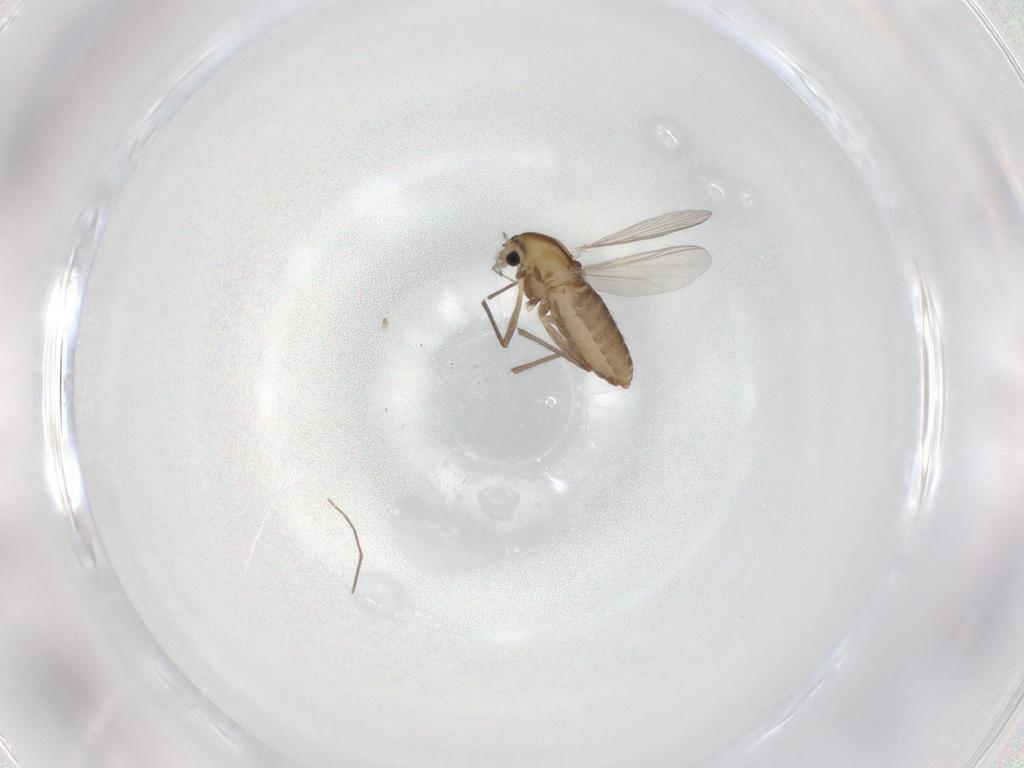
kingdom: Animalia
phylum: Arthropoda
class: Insecta
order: Diptera
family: Chironomidae
